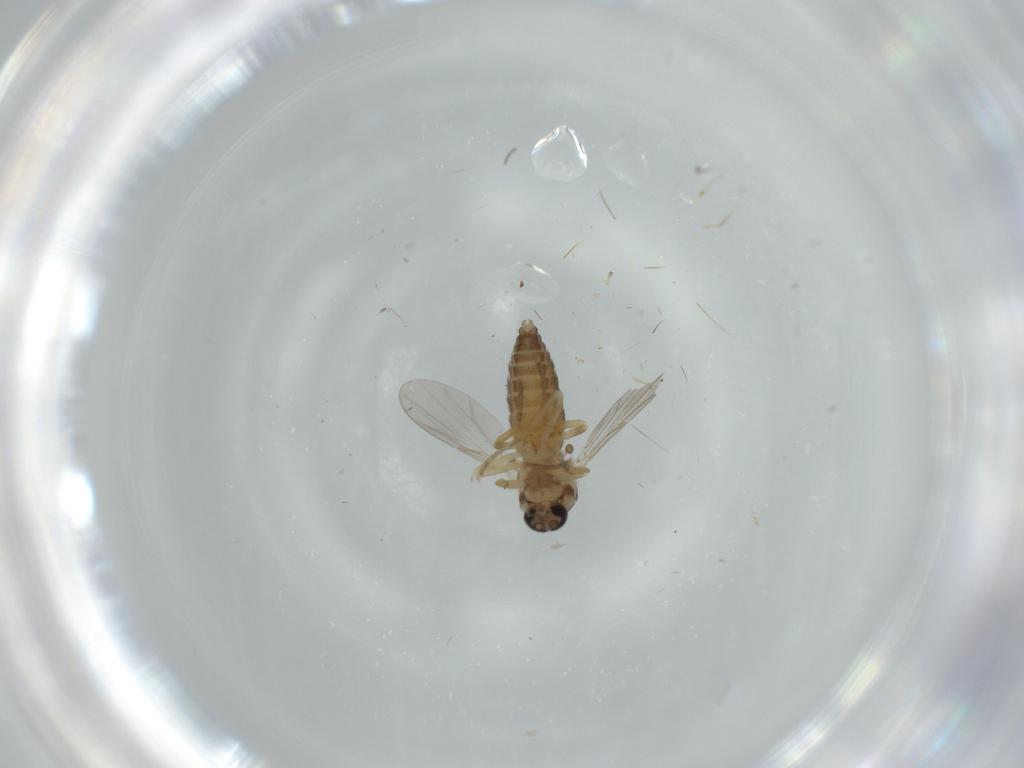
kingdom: Animalia
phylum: Arthropoda
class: Insecta
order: Diptera
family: Ceratopogonidae
